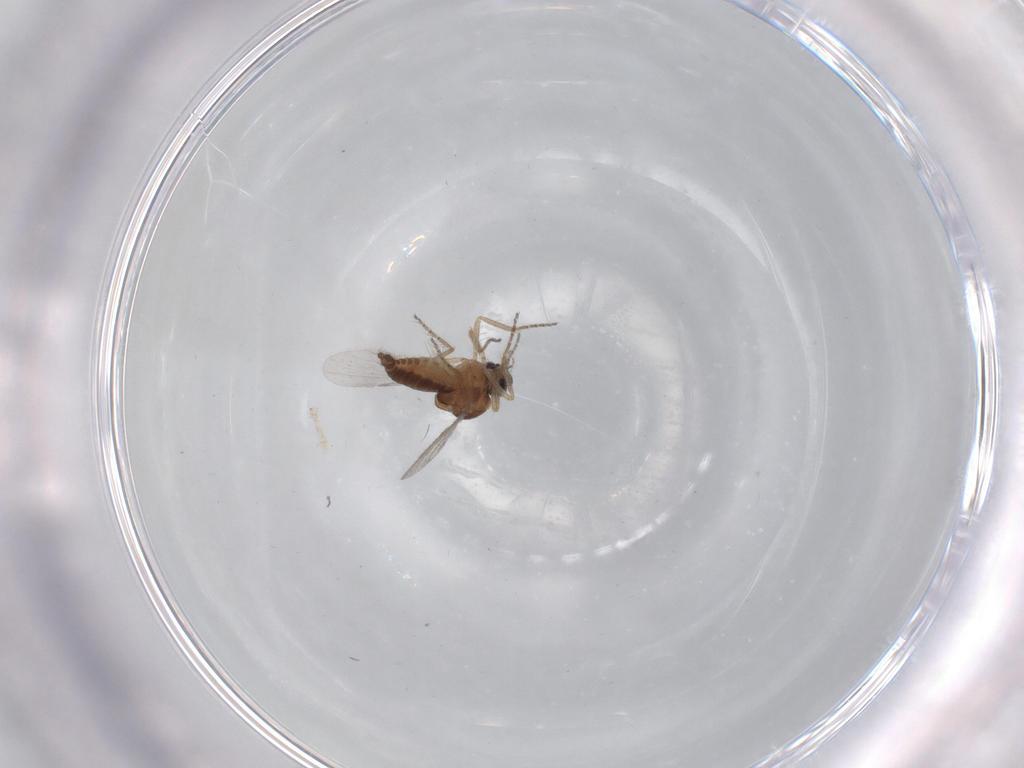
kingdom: Animalia
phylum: Arthropoda
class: Insecta
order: Diptera
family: Ceratopogonidae
